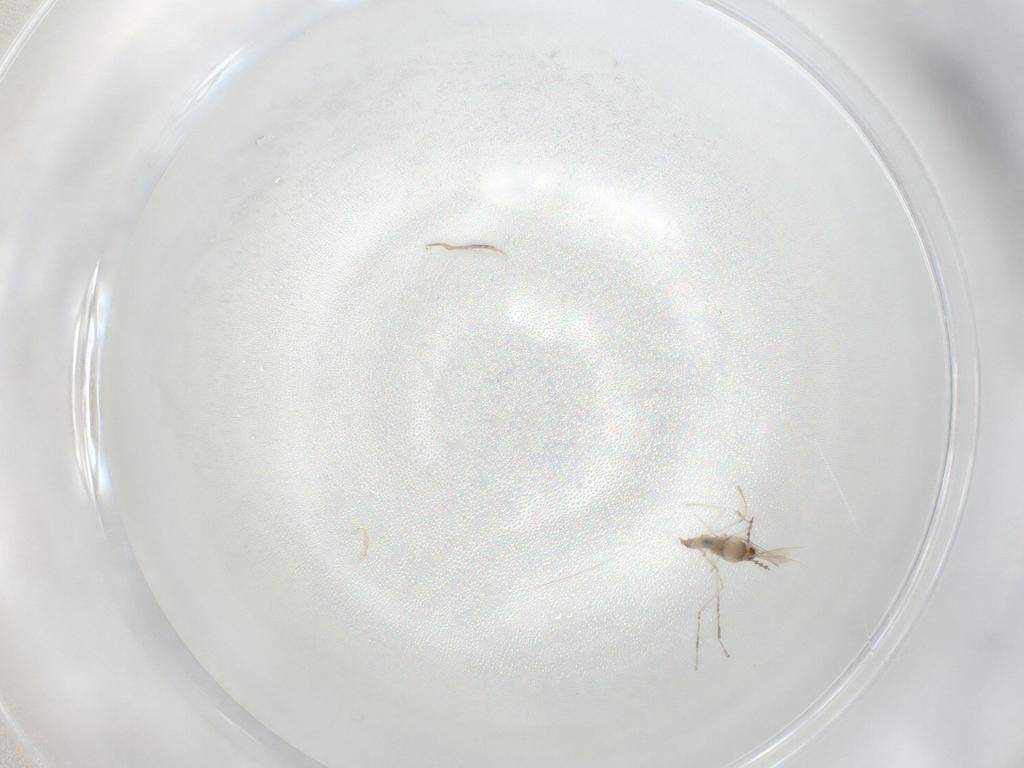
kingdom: Animalia
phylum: Arthropoda
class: Insecta
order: Diptera
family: Cecidomyiidae
